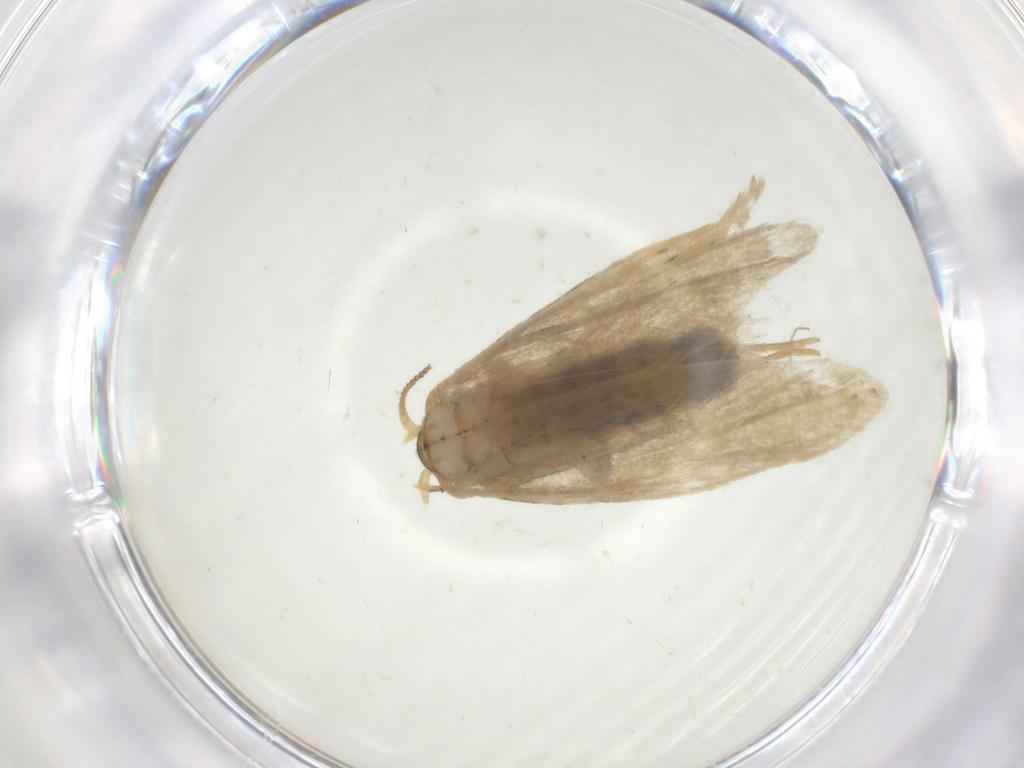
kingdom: Animalia
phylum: Arthropoda
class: Insecta
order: Lepidoptera
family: Dryadaulidae
